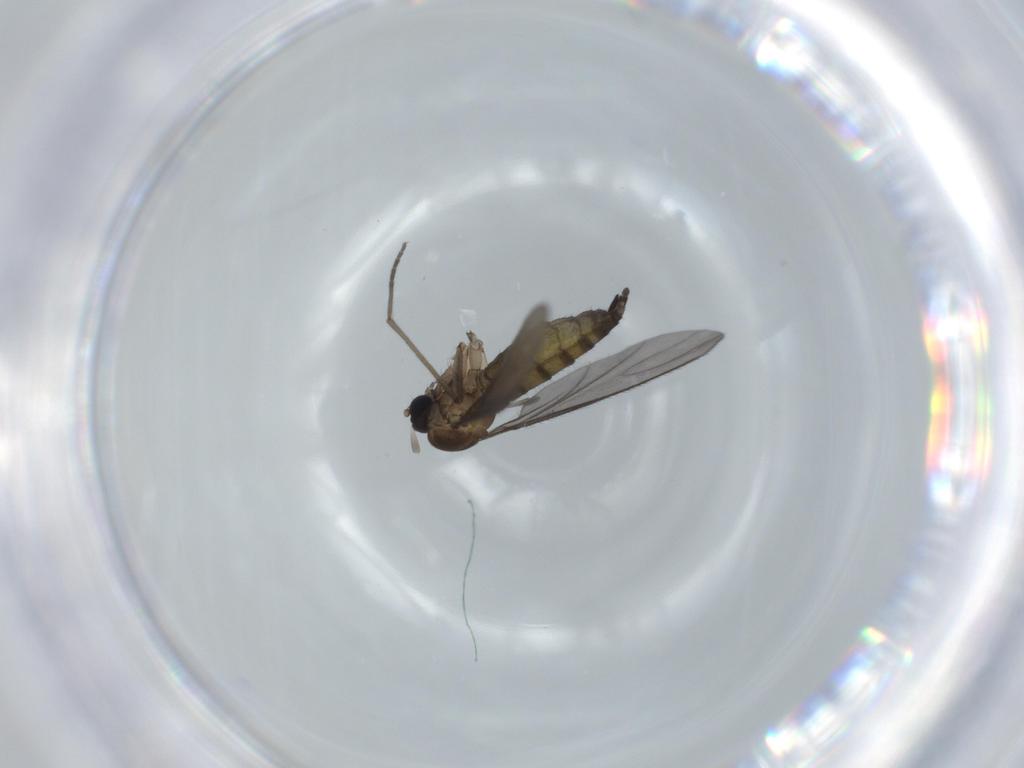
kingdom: Animalia
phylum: Arthropoda
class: Insecta
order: Diptera
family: Sciaridae
